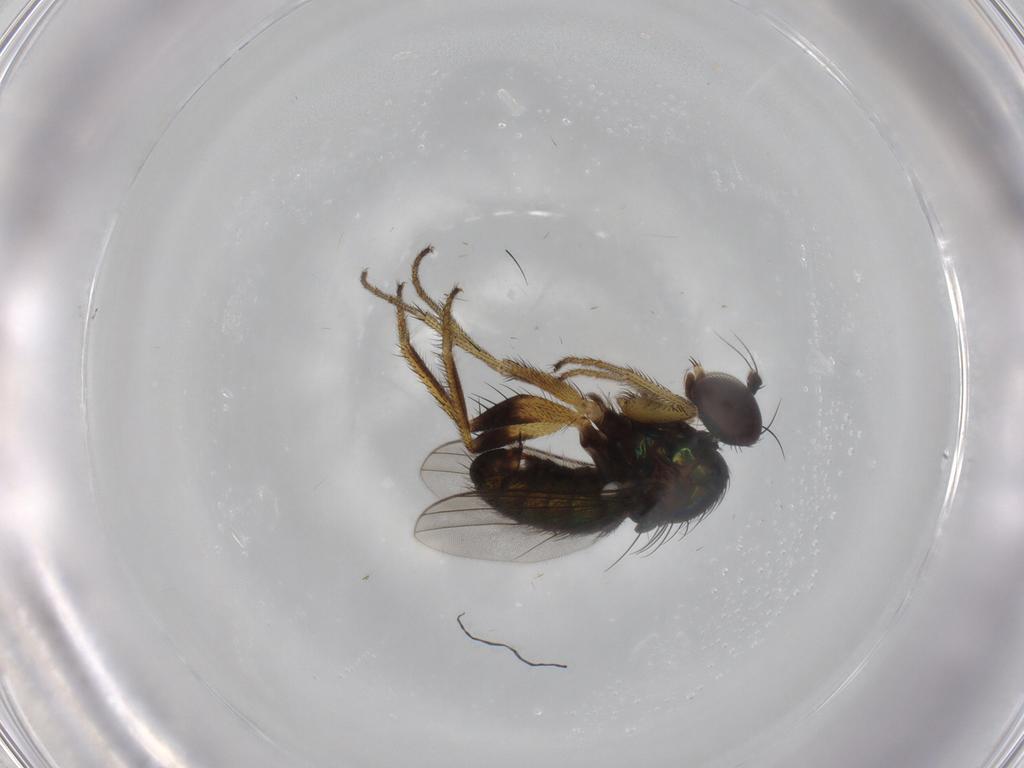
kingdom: Animalia
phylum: Arthropoda
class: Insecta
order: Diptera
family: Dolichopodidae
